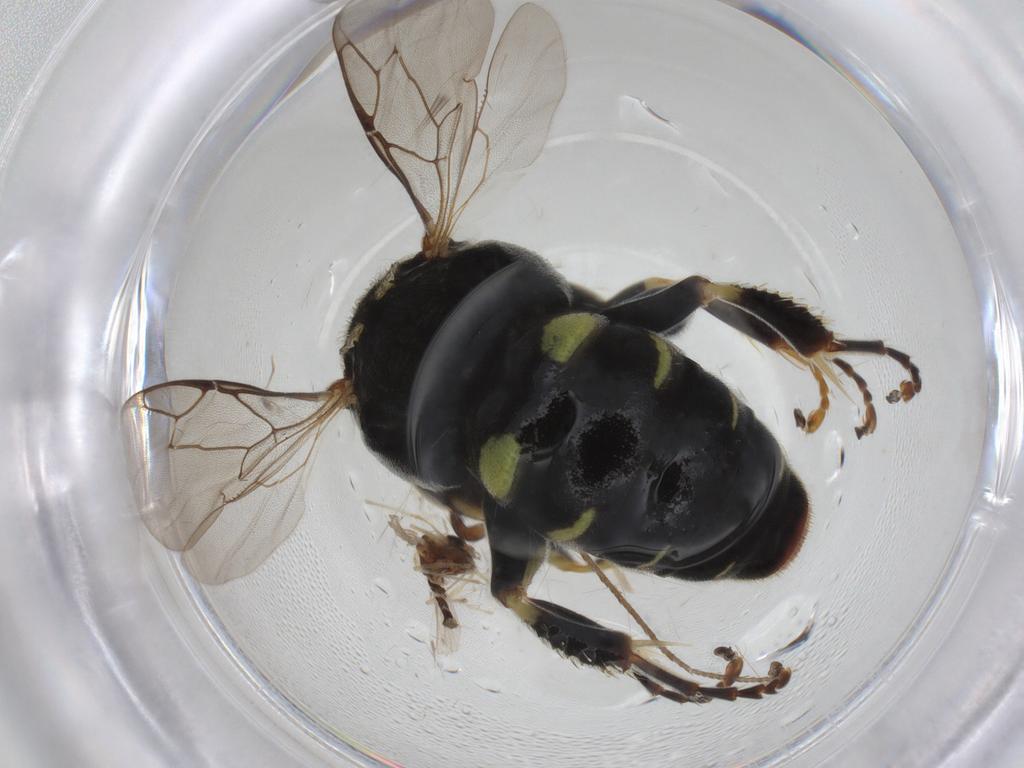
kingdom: Animalia
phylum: Arthropoda
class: Insecta
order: Hymenoptera
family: Crabronidae
